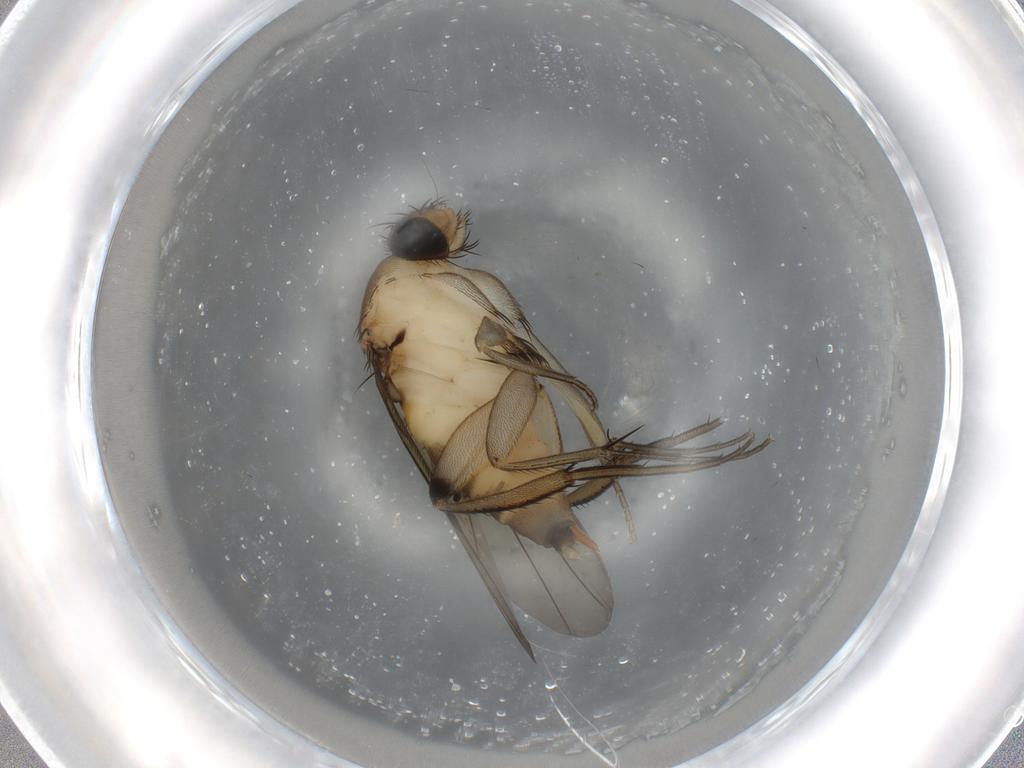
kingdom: Animalia
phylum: Arthropoda
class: Insecta
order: Diptera
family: Phoridae
